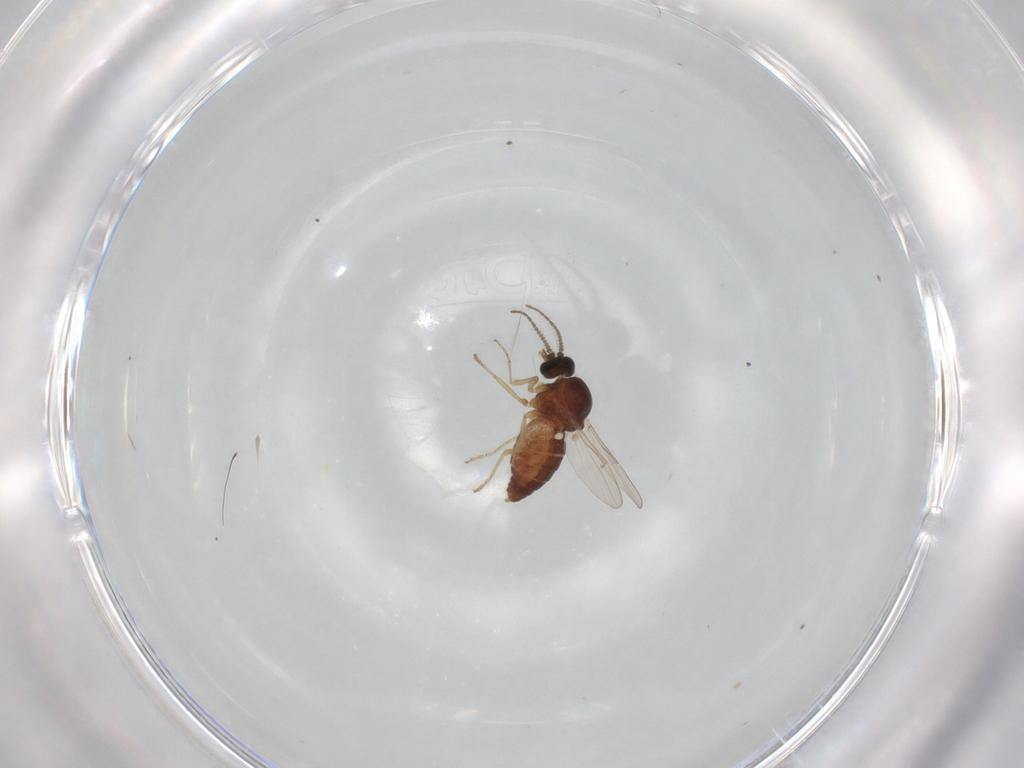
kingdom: Animalia
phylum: Arthropoda
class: Insecta
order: Diptera
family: Ceratopogonidae
